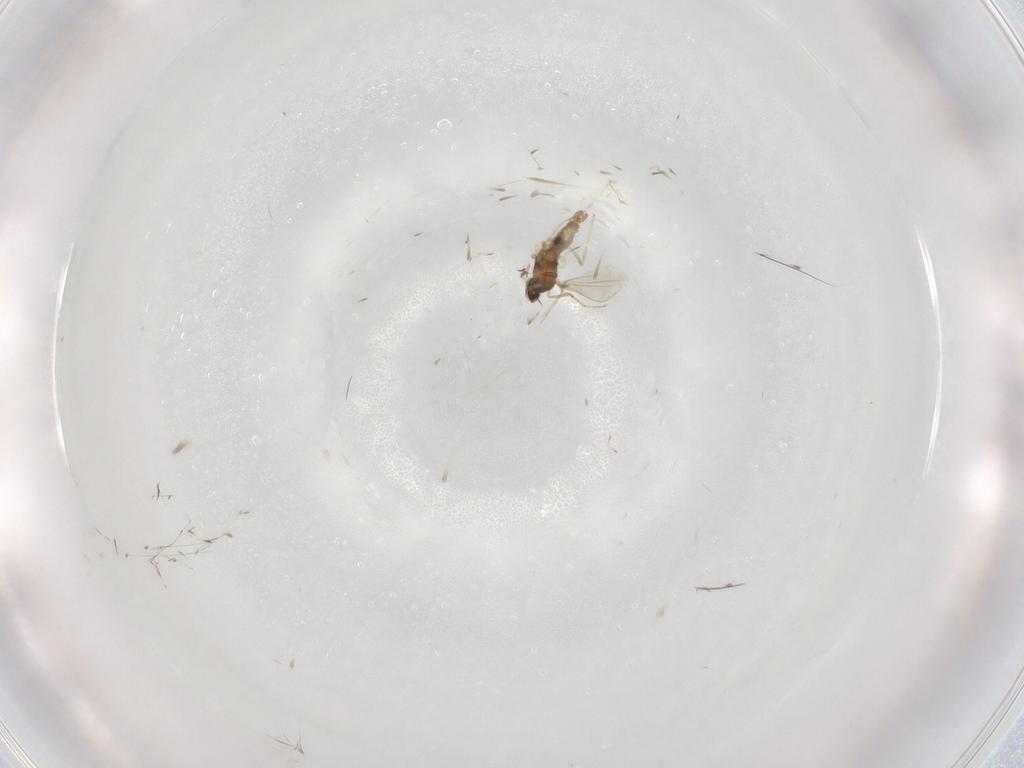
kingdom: Animalia
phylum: Arthropoda
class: Insecta
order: Diptera
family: Cecidomyiidae
